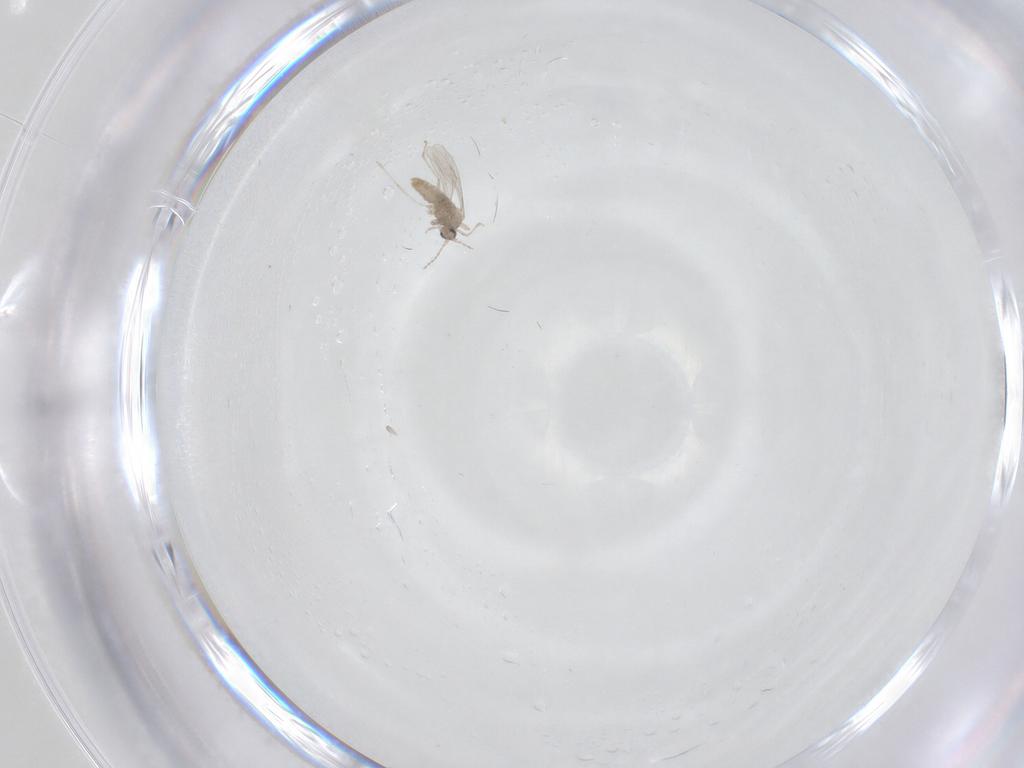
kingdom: Animalia
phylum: Arthropoda
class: Insecta
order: Diptera
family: Cecidomyiidae
